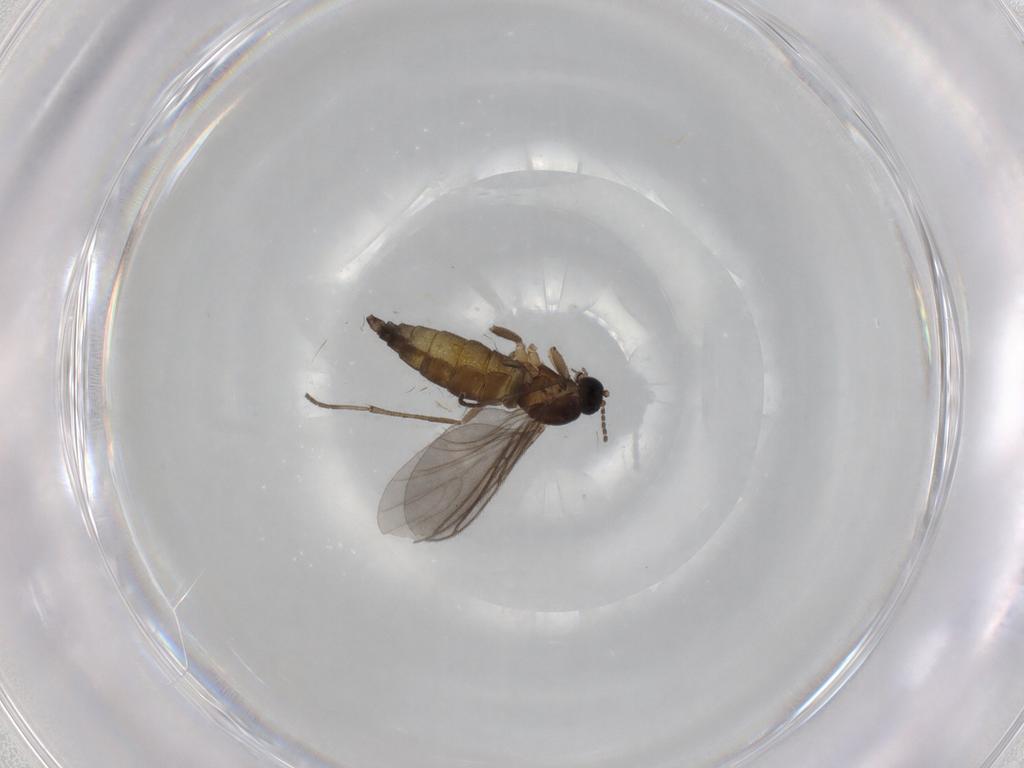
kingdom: Animalia
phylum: Arthropoda
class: Insecta
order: Diptera
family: Sciaridae
